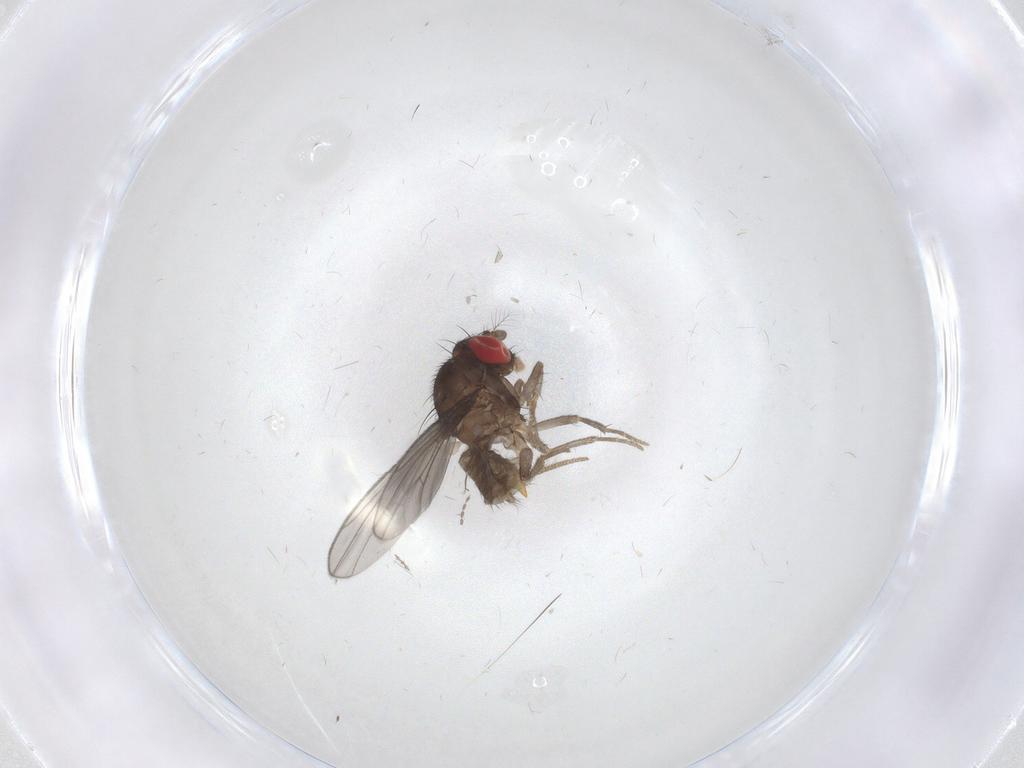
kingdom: Animalia
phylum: Arthropoda
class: Insecta
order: Diptera
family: Drosophilidae
